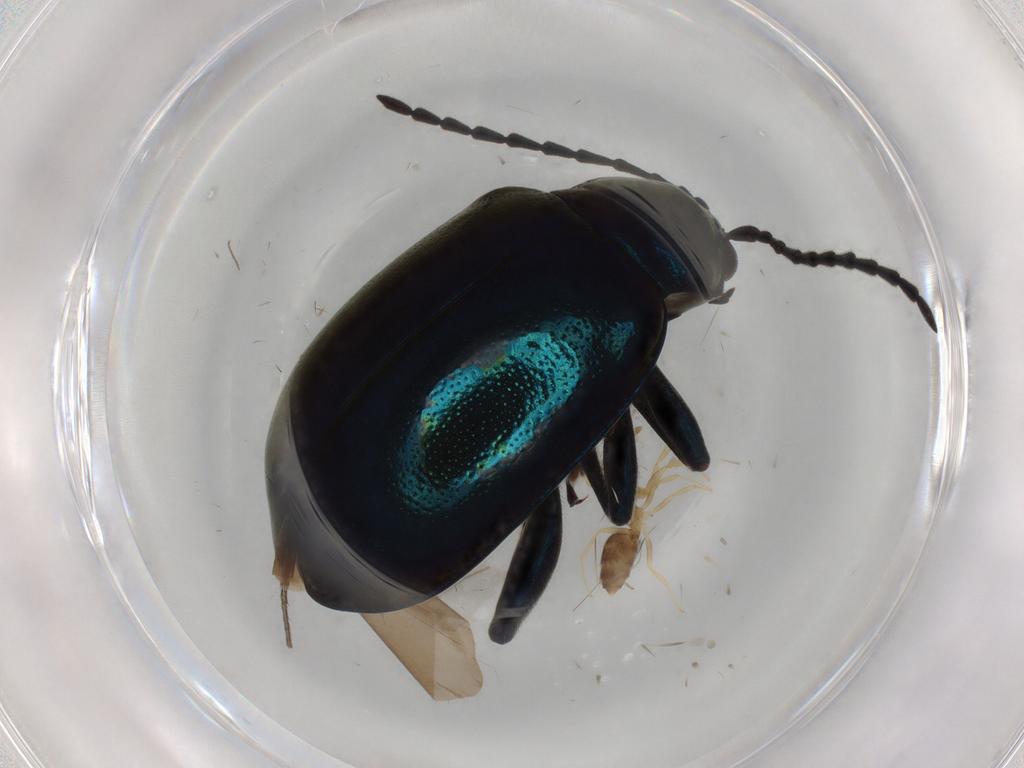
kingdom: Animalia
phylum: Arthropoda
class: Insecta
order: Coleoptera
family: Chrysomelidae
